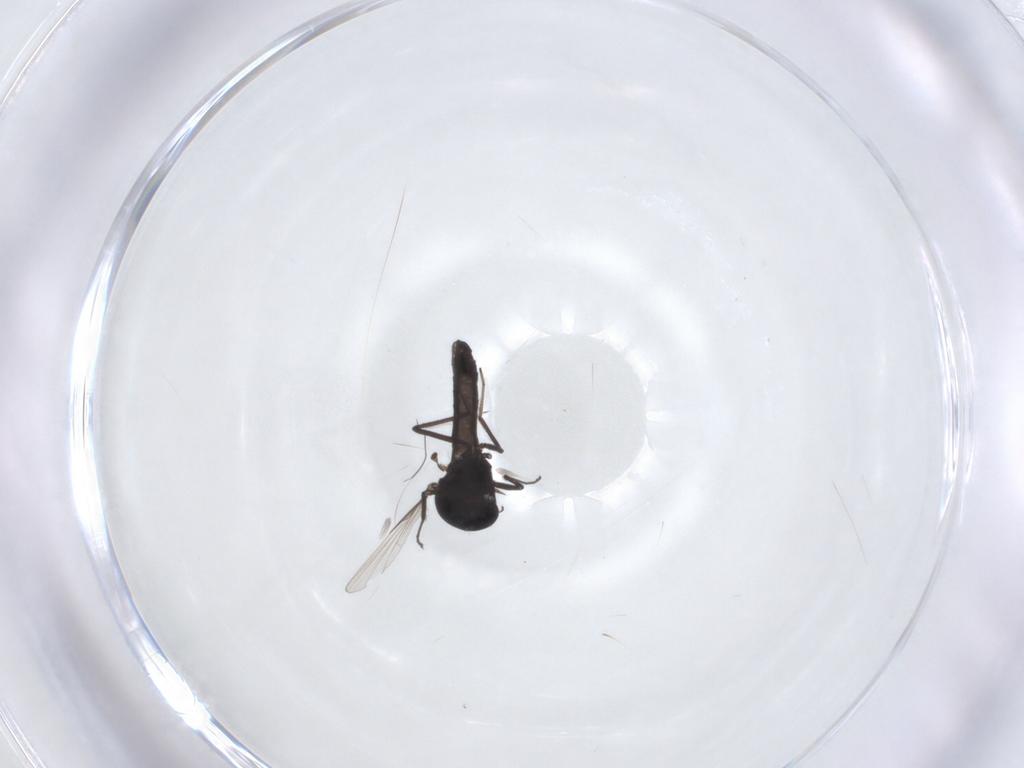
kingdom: Animalia
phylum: Arthropoda
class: Insecta
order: Diptera
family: Ceratopogonidae
